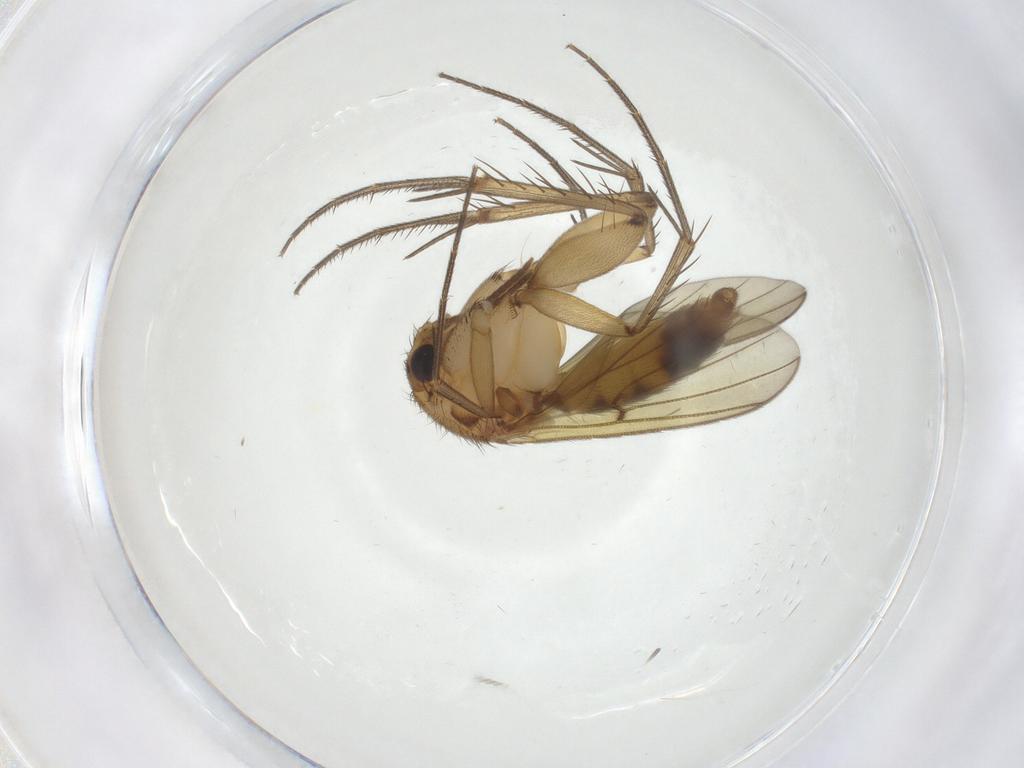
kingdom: Animalia
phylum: Arthropoda
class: Insecta
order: Diptera
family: Mycetophilidae
